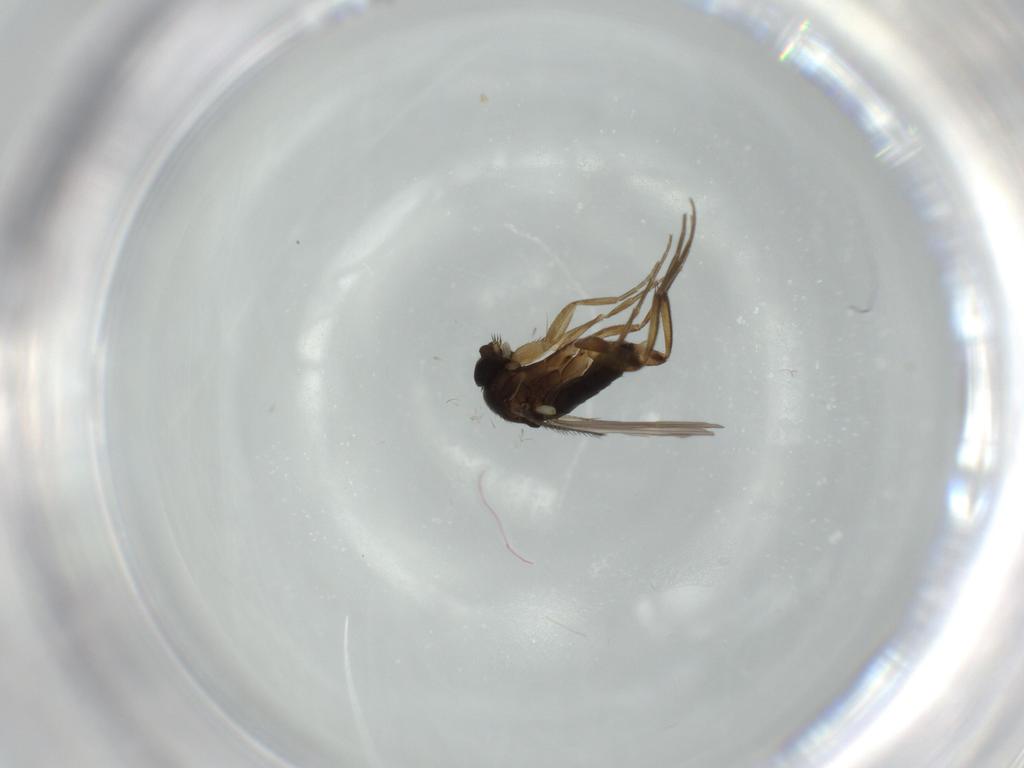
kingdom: Animalia
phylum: Arthropoda
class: Insecta
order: Diptera
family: Phoridae
